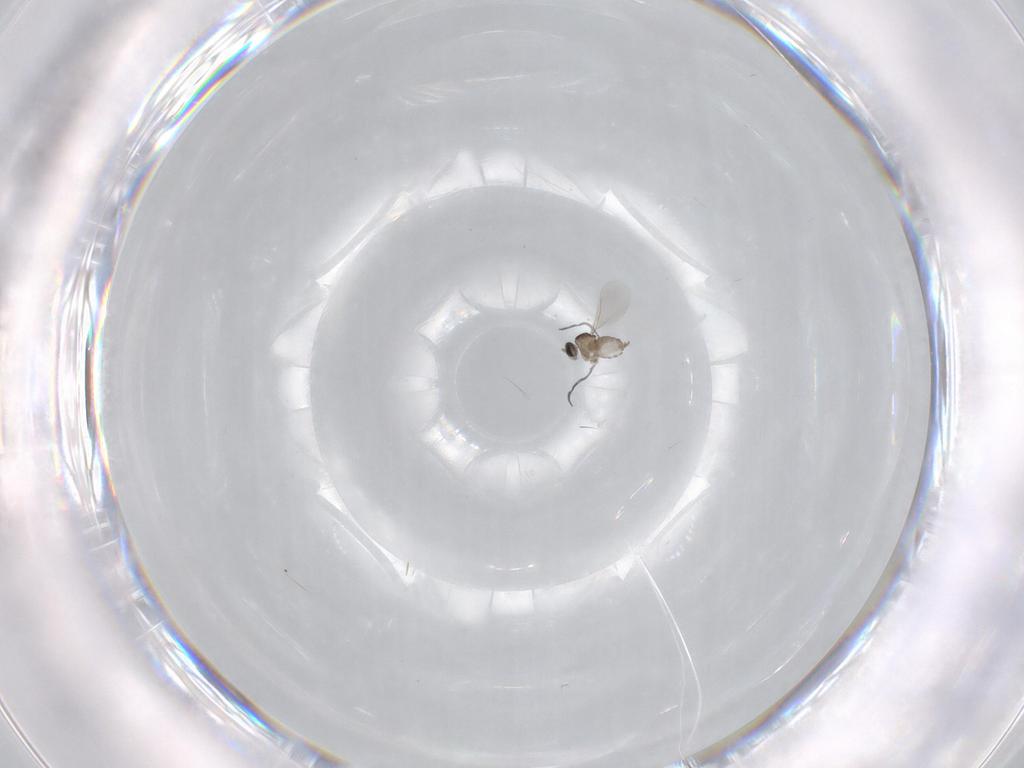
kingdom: Animalia
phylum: Arthropoda
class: Insecta
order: Diptera
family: Cecidomyiidae
